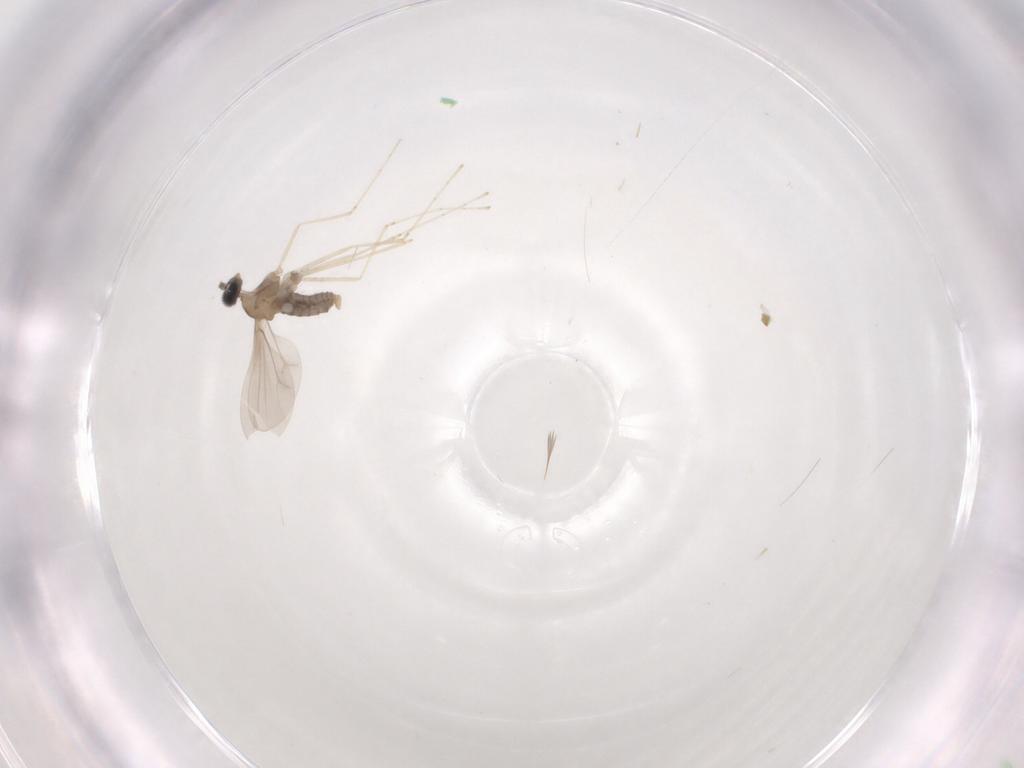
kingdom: Animalia
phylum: Arthropoda
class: Insecta
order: Diptera
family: Cecidomyiidae
